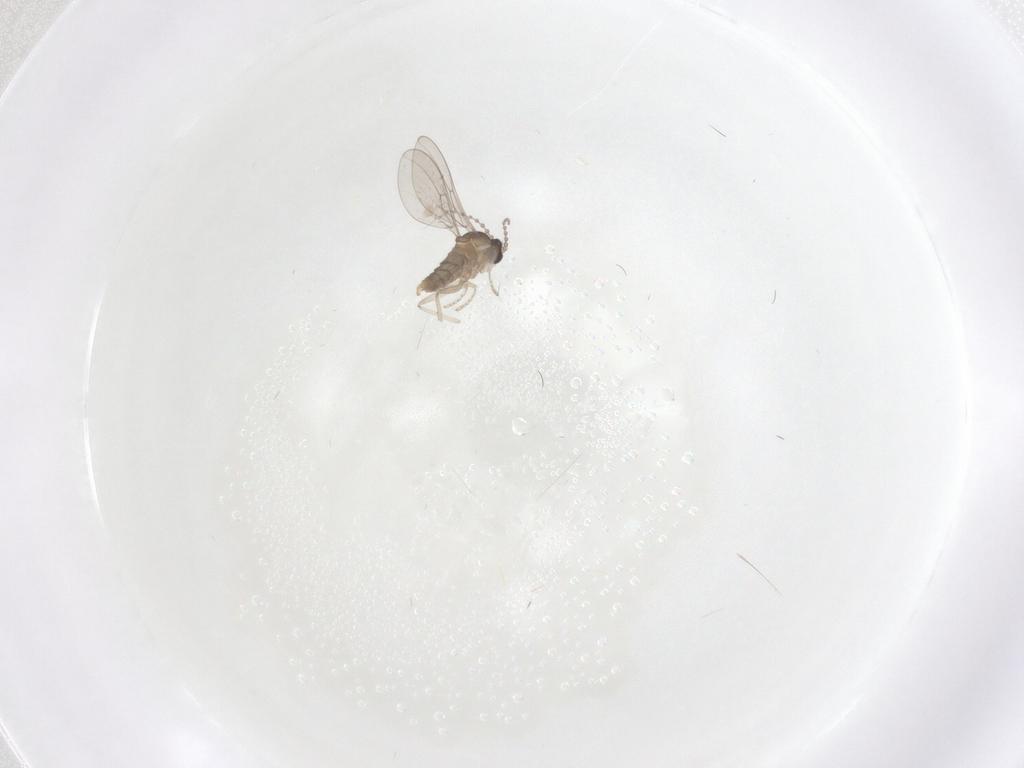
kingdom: Animalia
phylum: Arthropoda
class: Insecta
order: Diptera
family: Cecidomyiidae
